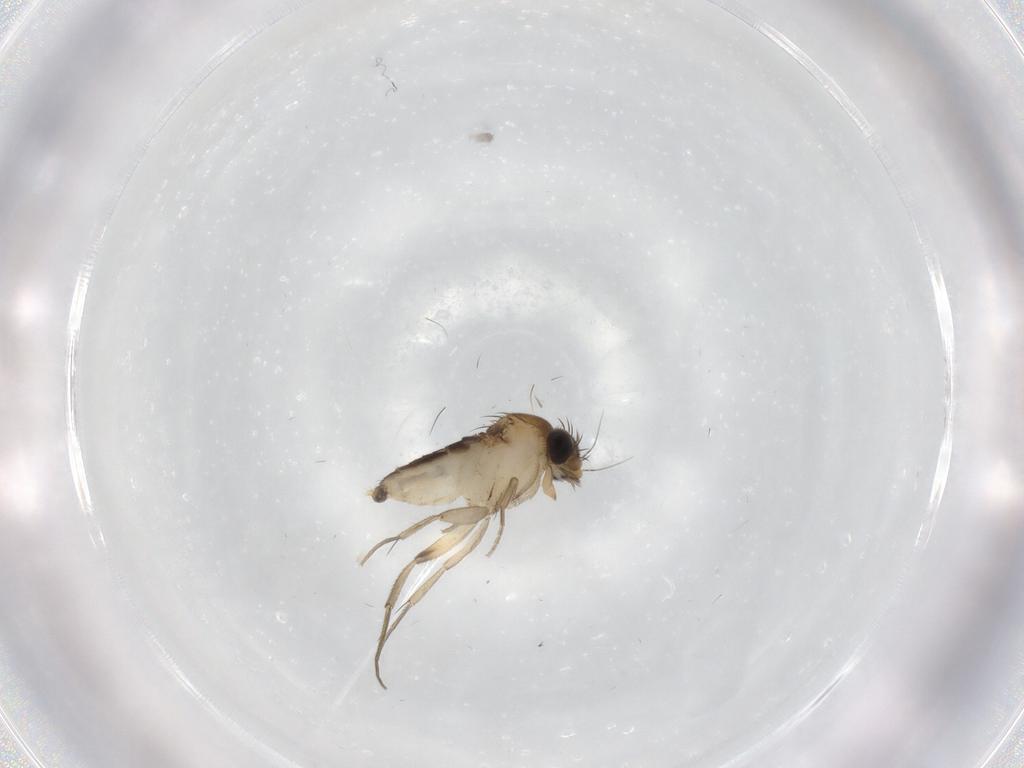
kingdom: Animalia
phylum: Arthropoda
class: Insecta
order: Diptera
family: Phoridae
